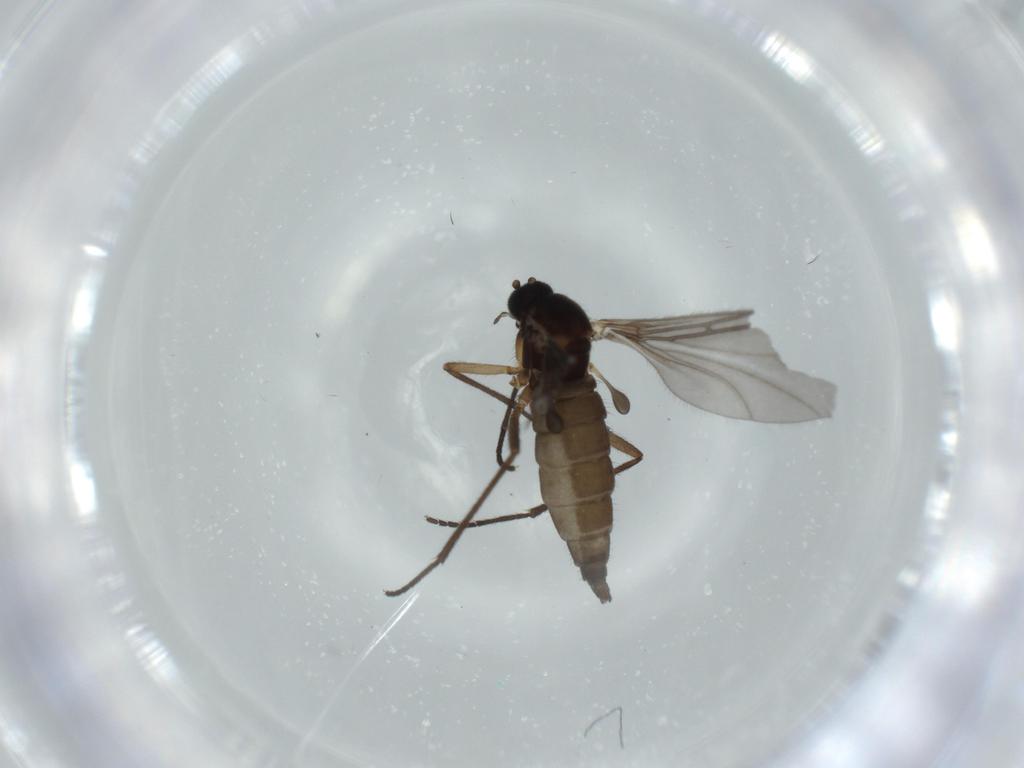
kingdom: Animalia
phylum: Arthropoda
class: Insecta
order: Diptera
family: Sciaridae
